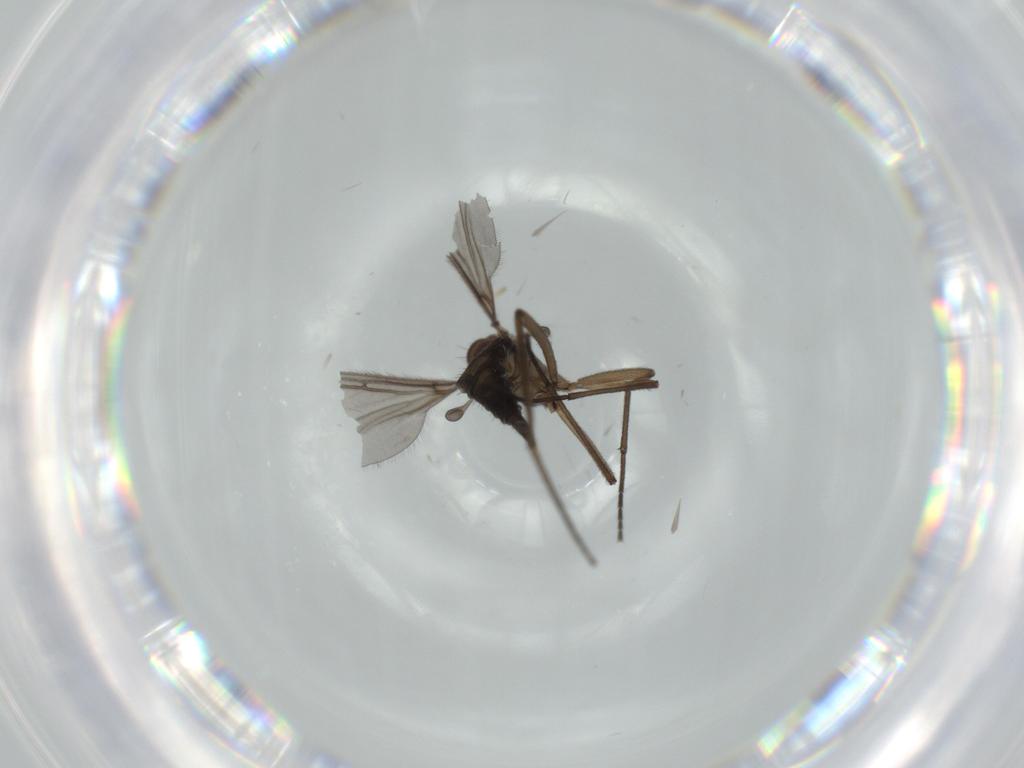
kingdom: Animalia
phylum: Arthropoda
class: Insecta
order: Diptera
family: Sciaridae
